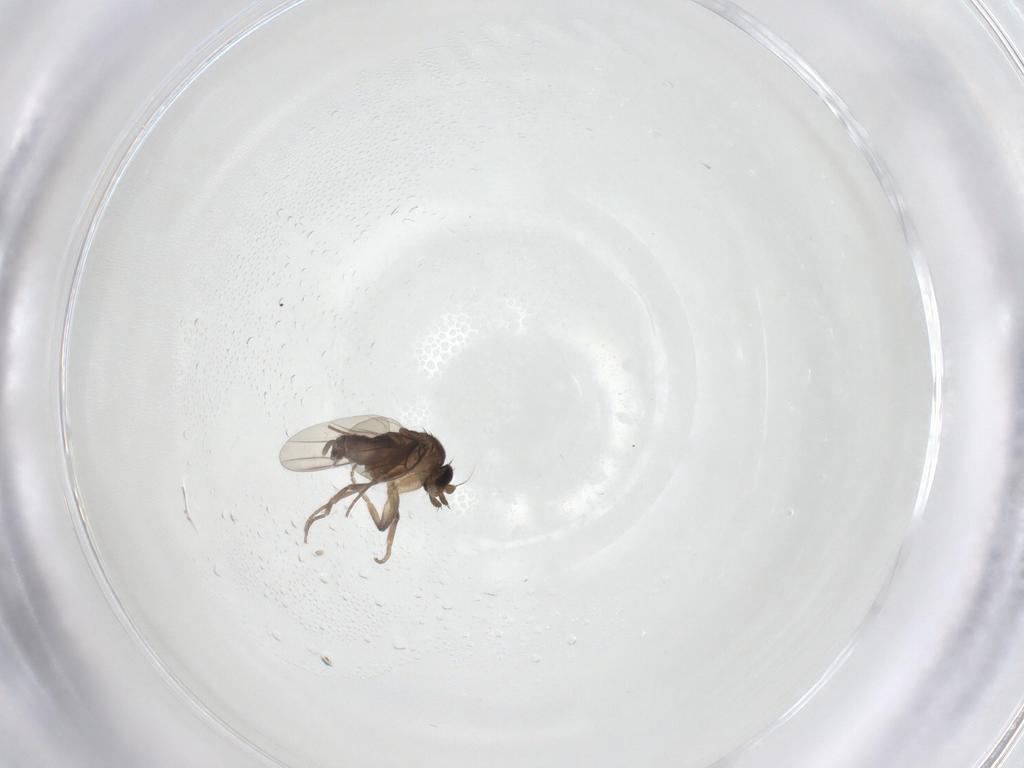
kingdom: Animalia
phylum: Arthropoda
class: Insecta
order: Diptera
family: Phoridae
